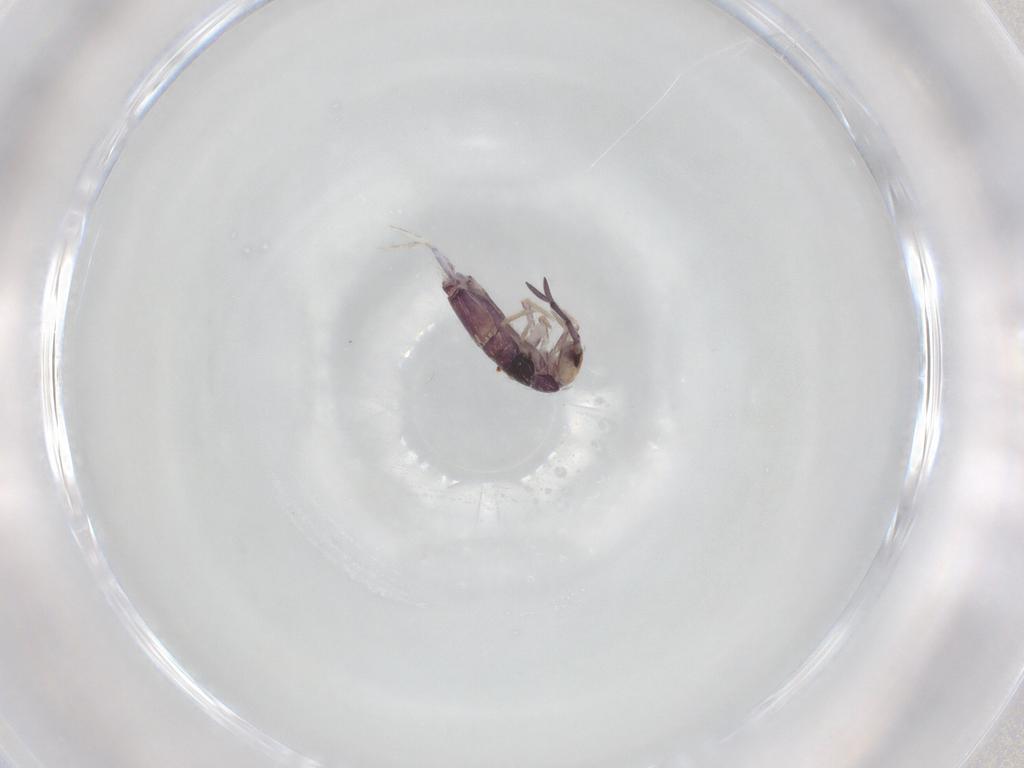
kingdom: Animalia
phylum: Arthropoda
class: Collembola
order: Entomobryomorpha
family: Entomobryidae
